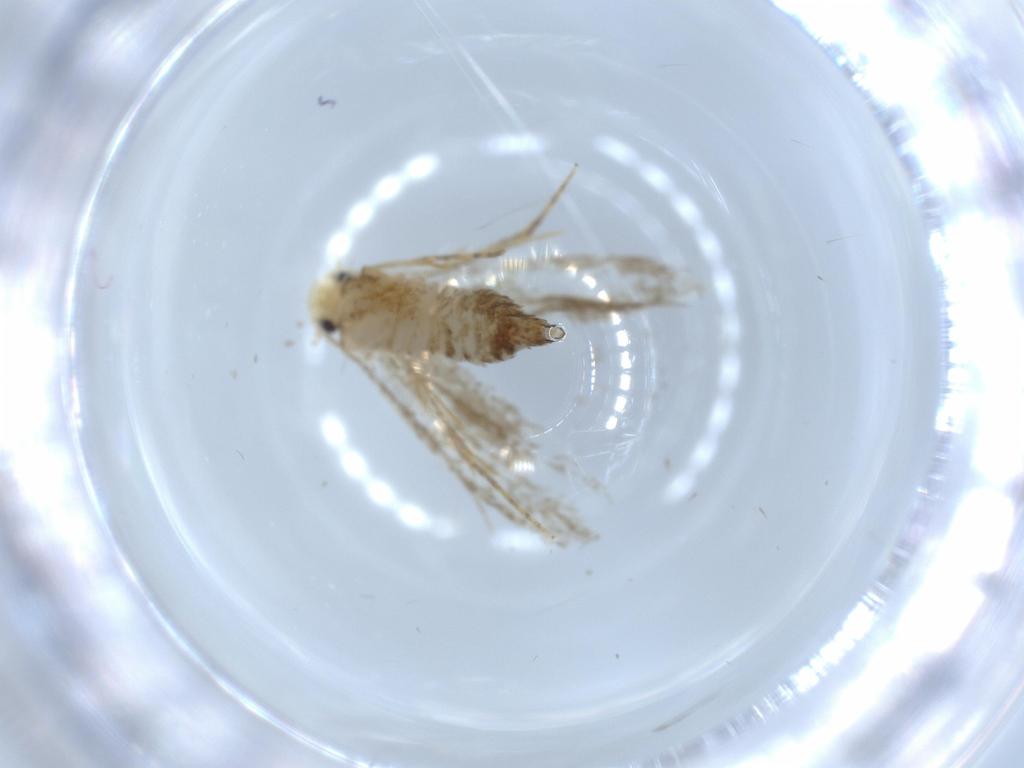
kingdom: Animalia
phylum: Arthropoda
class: Insecta
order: Lepidoptera
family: Tineidae
